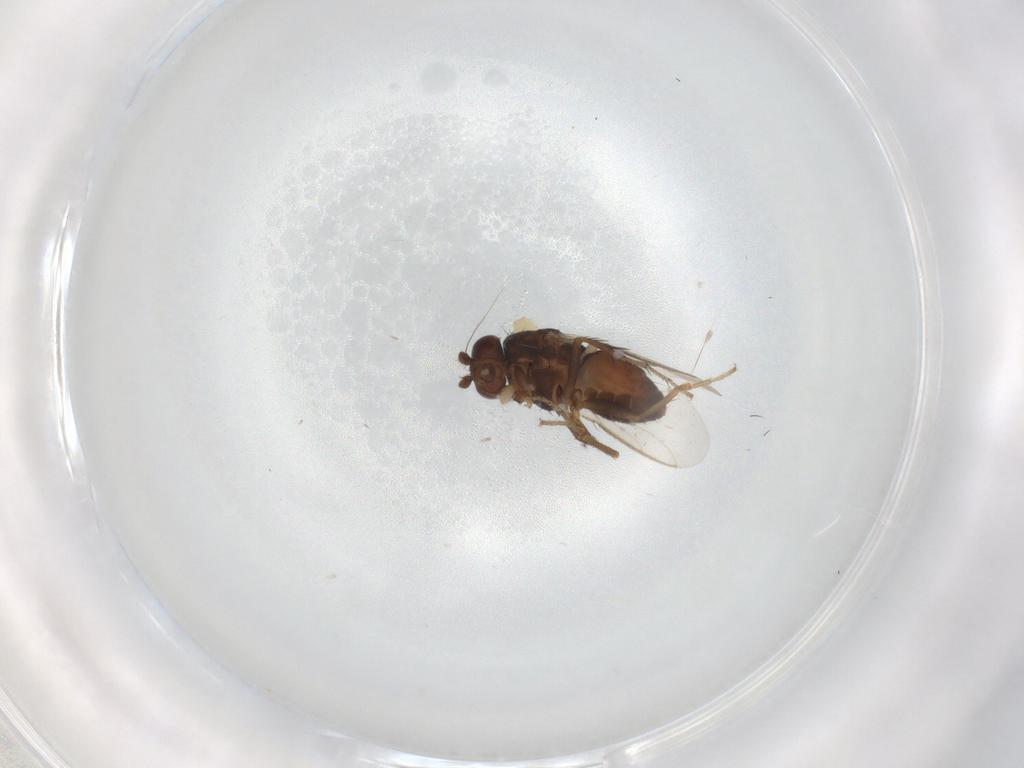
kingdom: Animalia
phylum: Arthropoda
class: Insecta
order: Diptera
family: Sphaeroceridae
